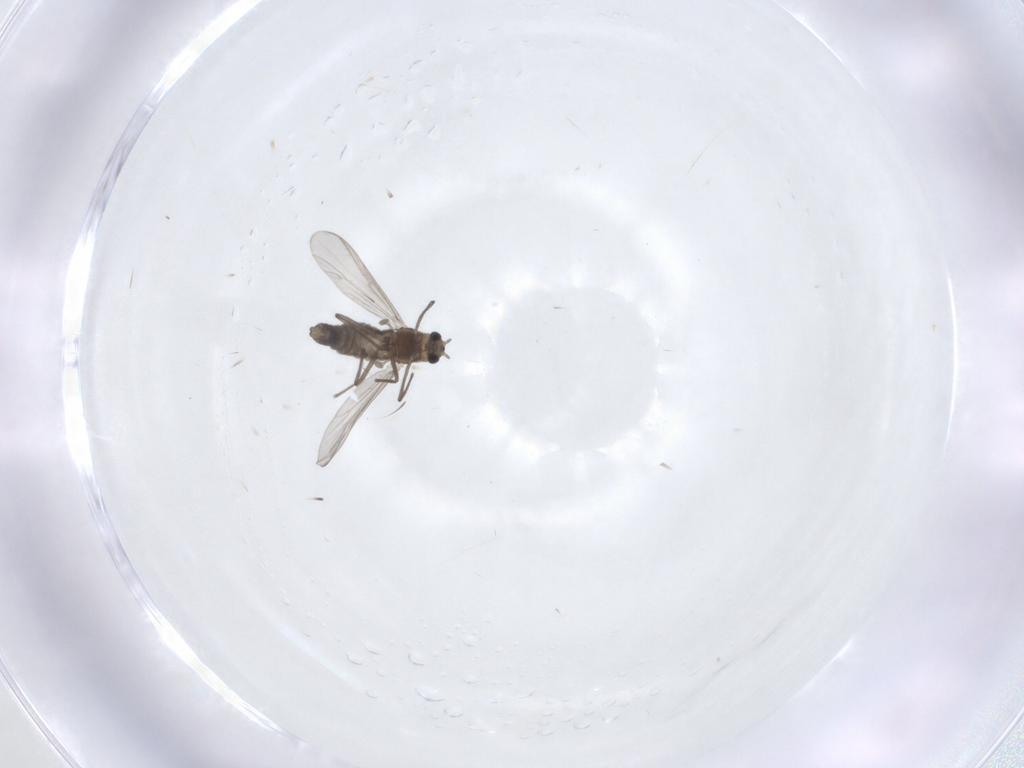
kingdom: Animalia
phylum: Arthropoda
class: Insecta
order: Diptera
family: Chironomidae
